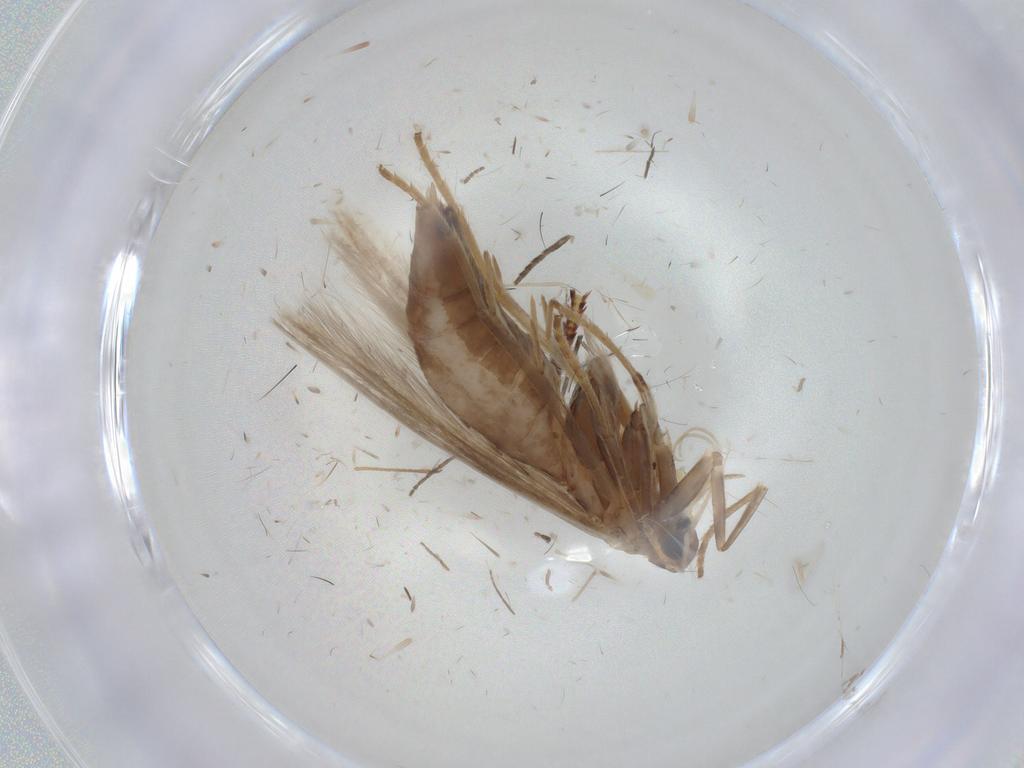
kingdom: Animalia
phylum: Arthropoda
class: Insecta
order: Lepidoptera
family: Coleophoridae
